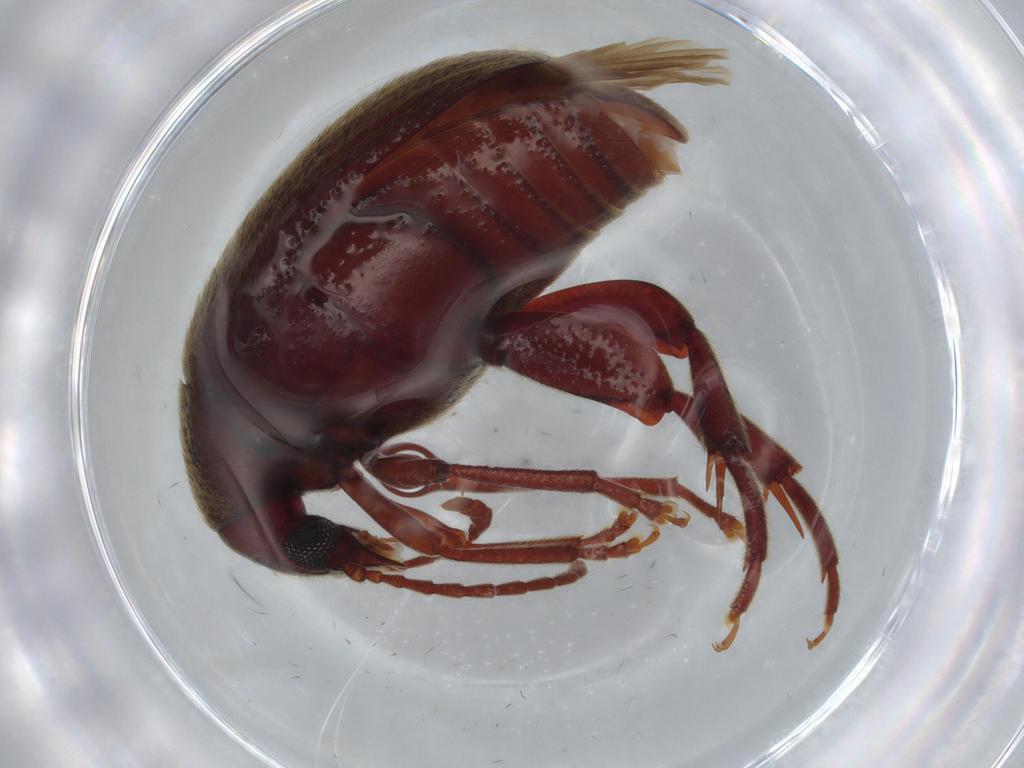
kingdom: Animalia
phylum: Arthropoda
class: Insecta
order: Coleoptera
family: Chrysomelidae
